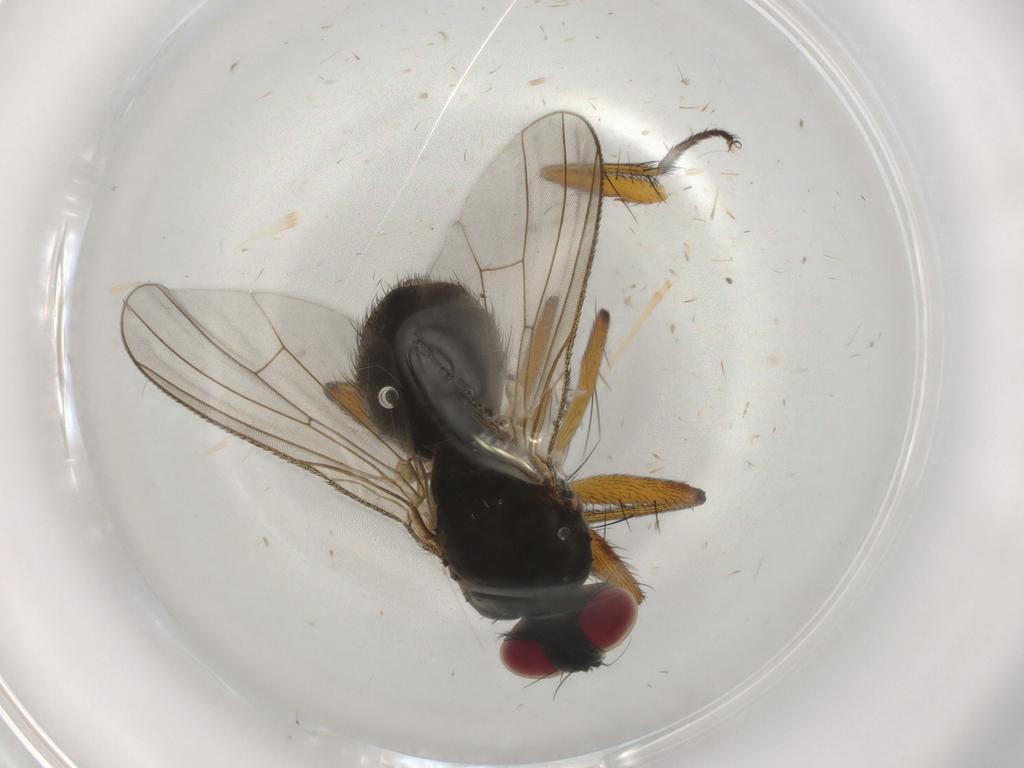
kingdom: Animalia
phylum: Arthropoda
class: Insecta
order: Diptera
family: Muscidae
